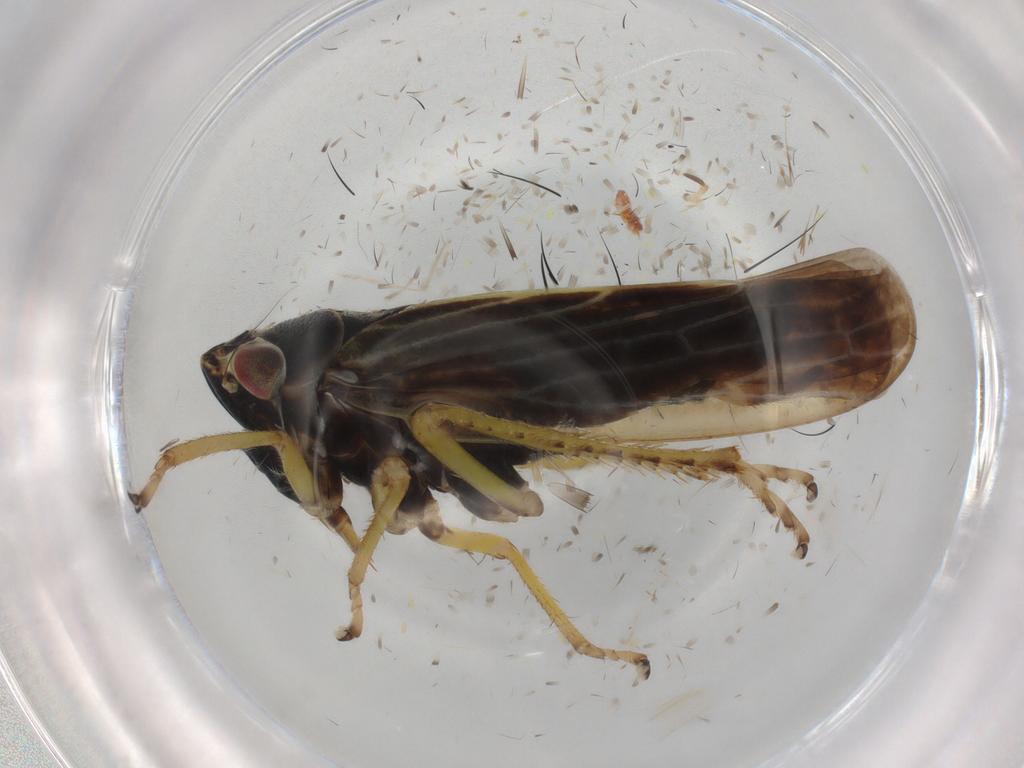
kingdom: Animalia
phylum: Arthropoda
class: Insecta
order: Hemiptera
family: Cicadellidae
